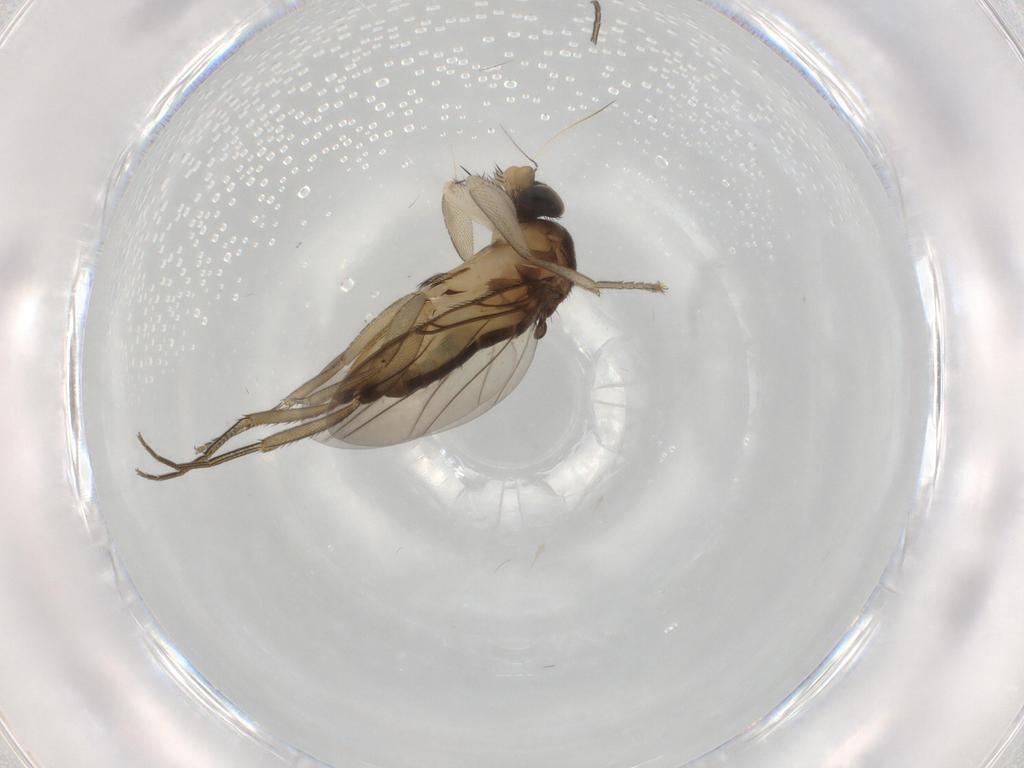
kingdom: Animalia
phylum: Arthropoda
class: Insecta
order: Diptera
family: Phoridae
